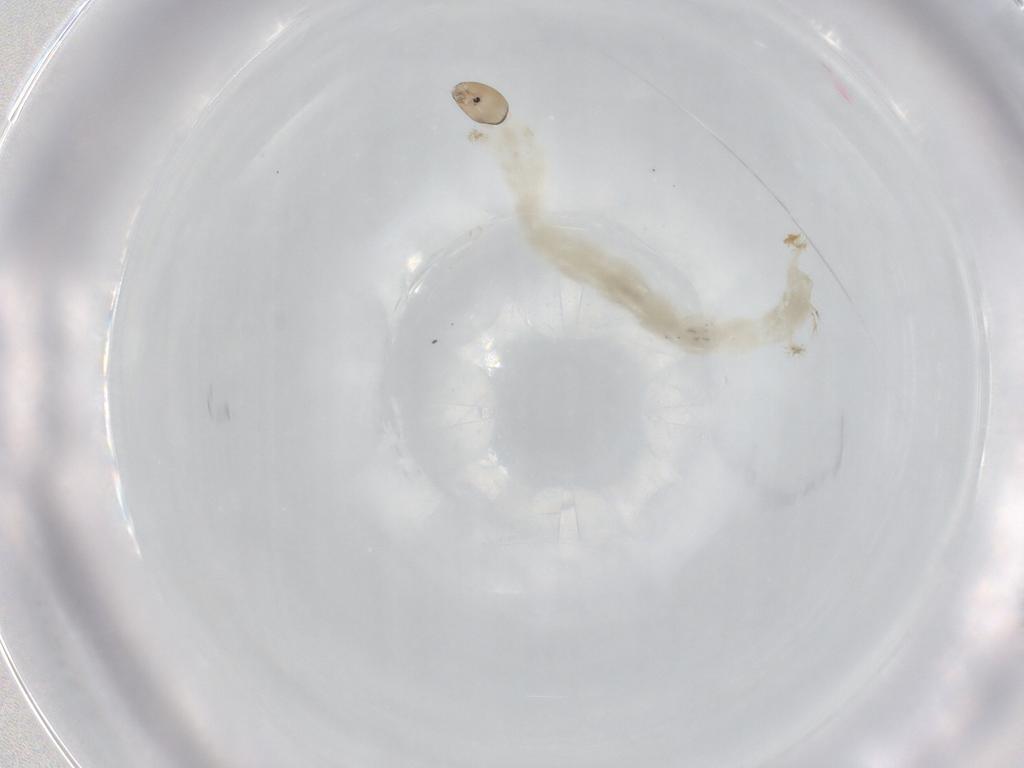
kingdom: Animalia
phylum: Arthropoda
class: Insecta
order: Diptera
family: Chironomidae
